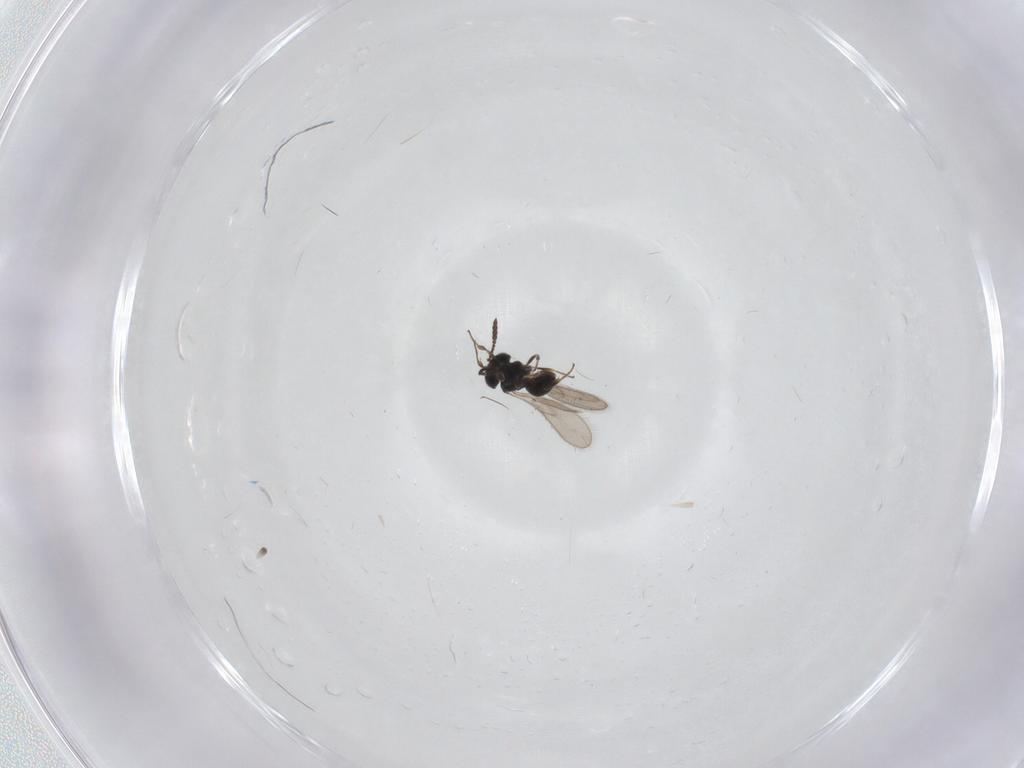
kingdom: Animalia
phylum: Arthropoda
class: Insecta
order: Hymenoptera
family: Scelionidae
